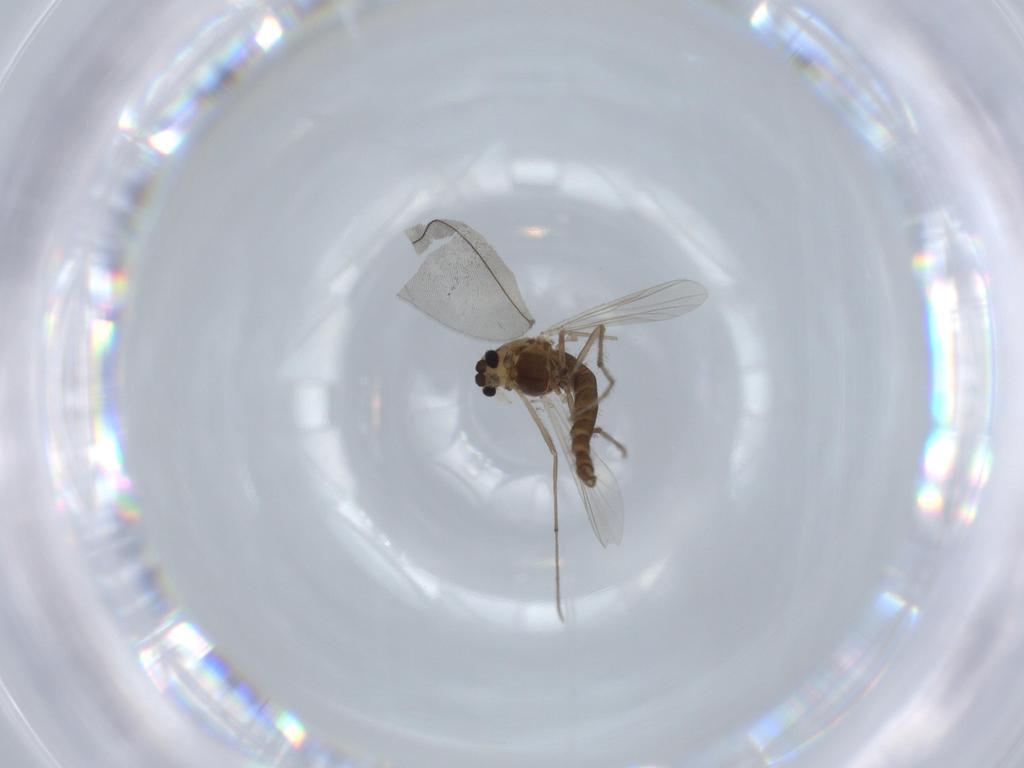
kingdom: Animalia
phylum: Arthropoda
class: Insecta
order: Diptera
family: Chironomidae
